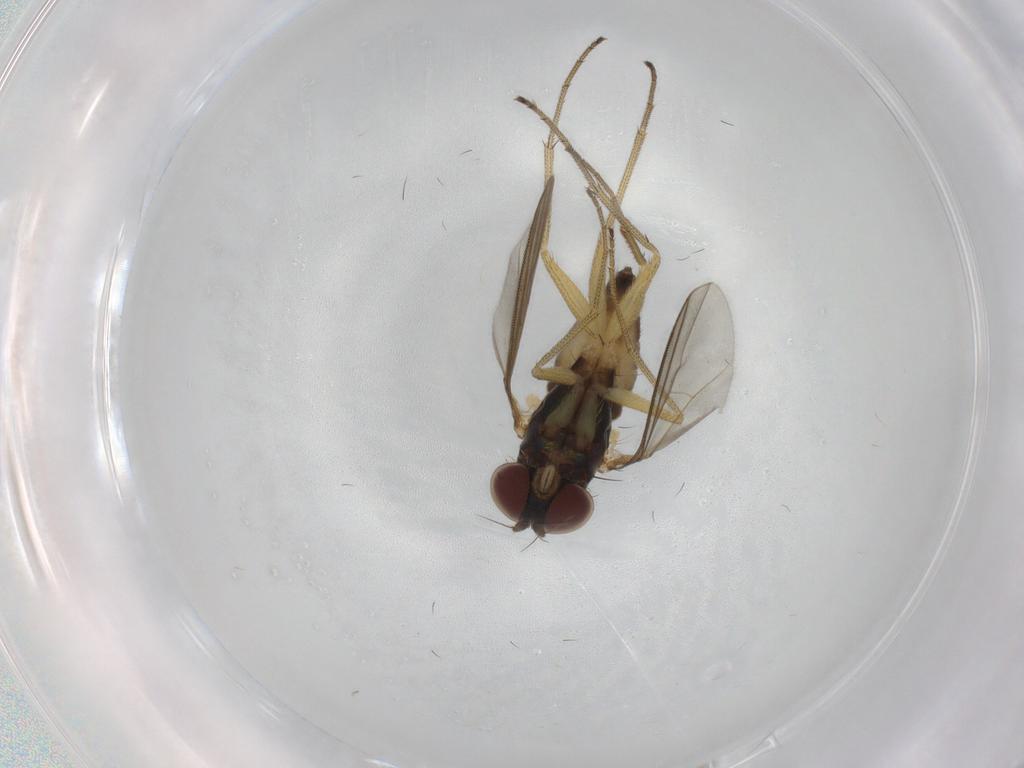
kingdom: Animalia
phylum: Arthropoda
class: Insecta
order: Diptera
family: Dolichopodidae
